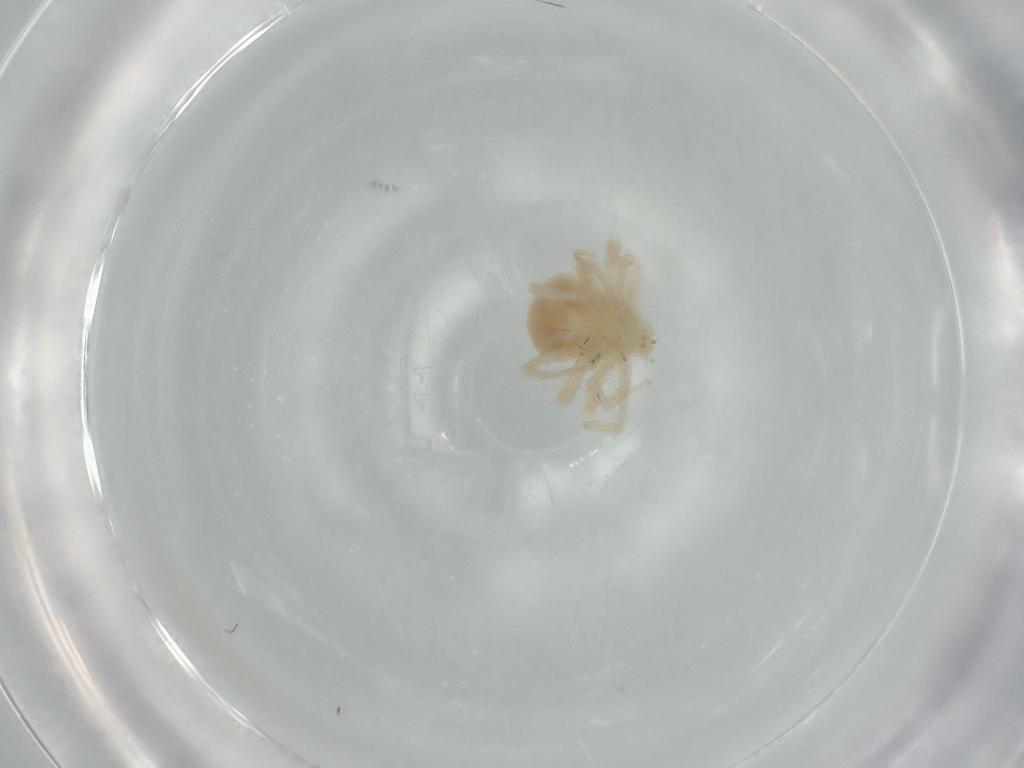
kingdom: Animalia
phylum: Arthropoda
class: Arachnida
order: Trombidiformes
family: Anystidae
